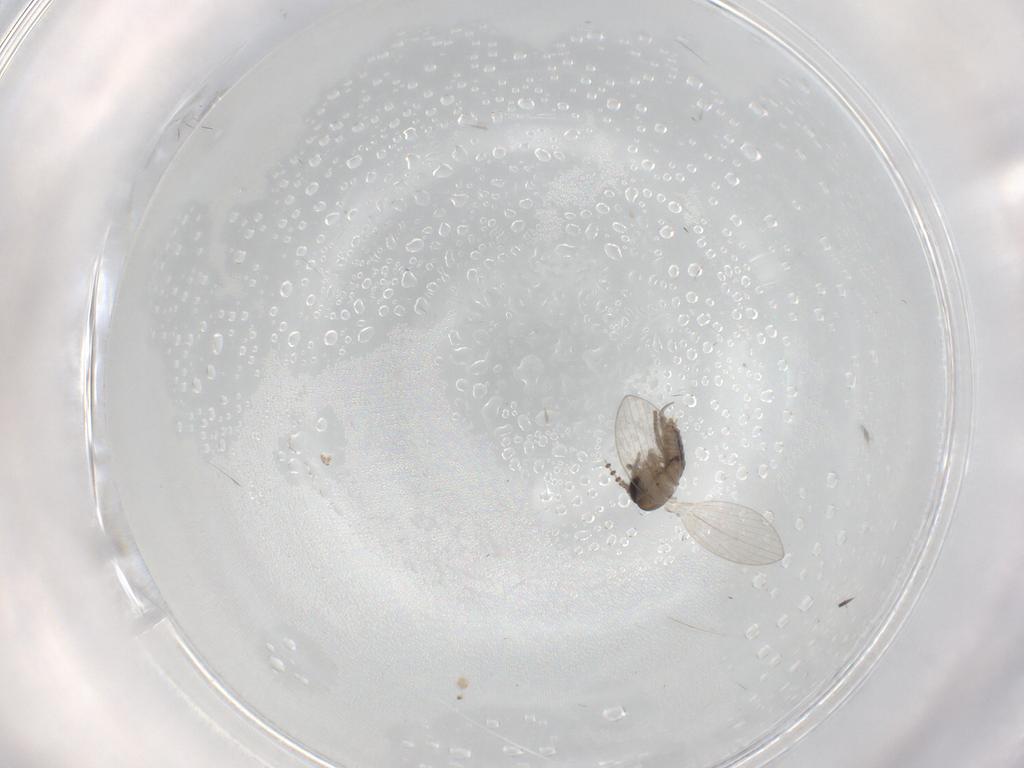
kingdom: Animalia
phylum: Arthropoda
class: Insecta
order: Diptera
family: Psychodidae
